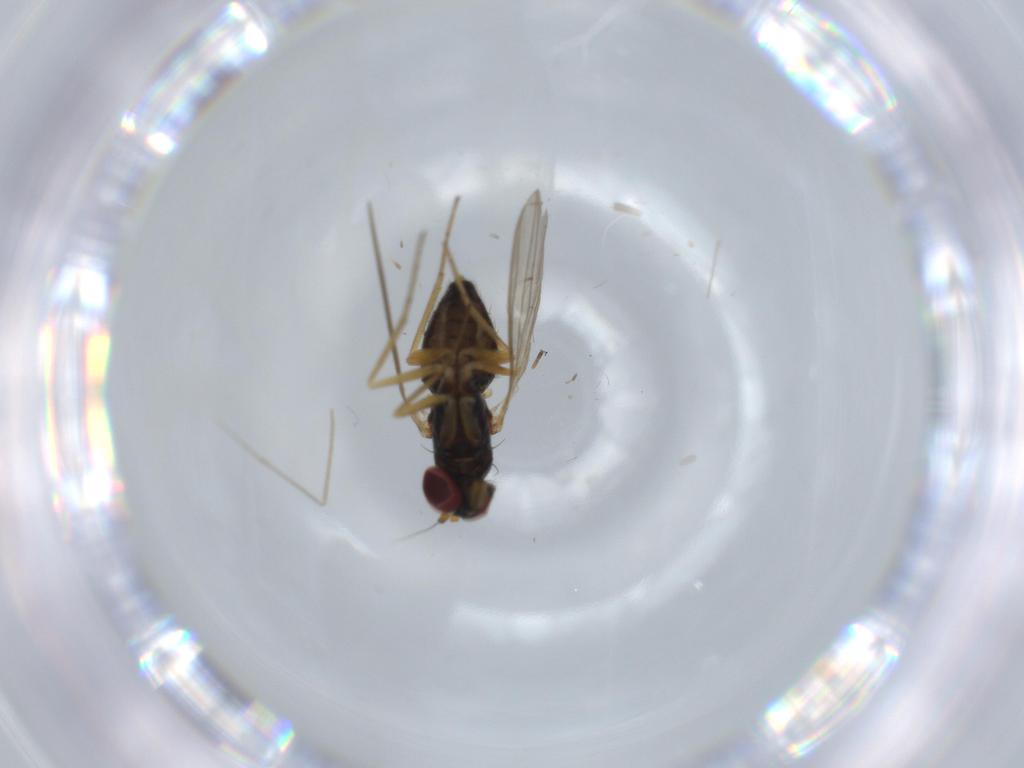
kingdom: Animalia
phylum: Arthropoda
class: Insecta
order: Diptera
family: Dolichopodidae
